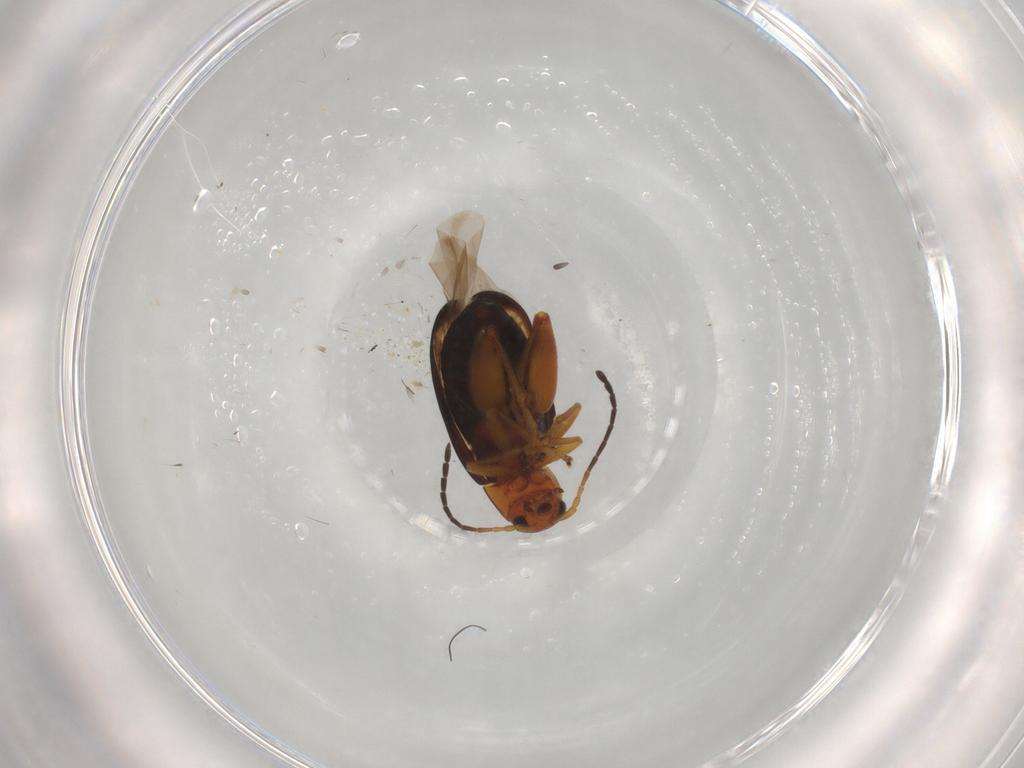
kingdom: Animalia
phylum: Arthropoda
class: Insecta
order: Coleoptera
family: Chrysomelidae
